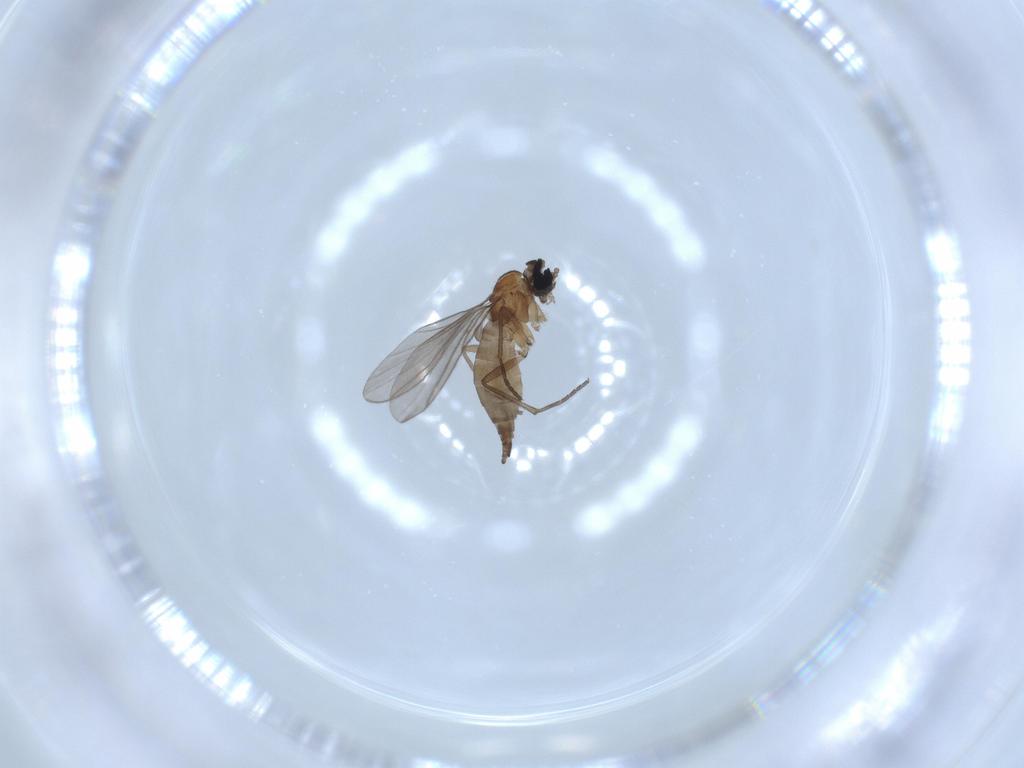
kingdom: Animalia
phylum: Arthropoda
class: Insecta
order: Diptera
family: Sciaridae
